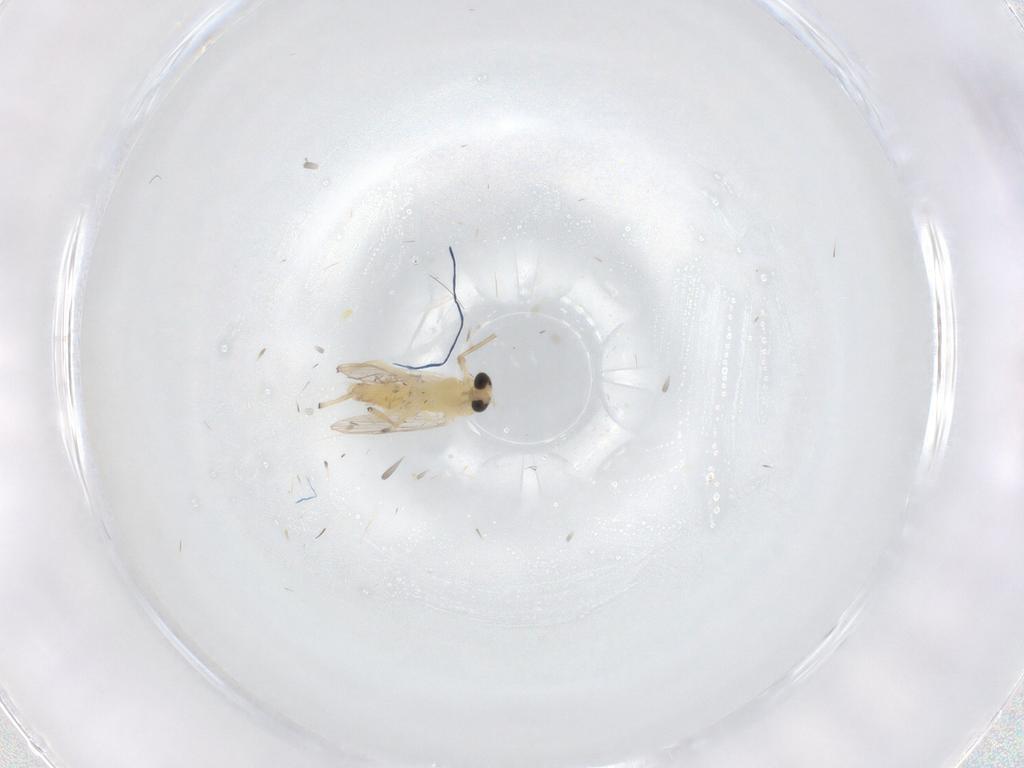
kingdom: Animalia
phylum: Arthropoda
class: Insecta
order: Diptera
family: Chironomidae
